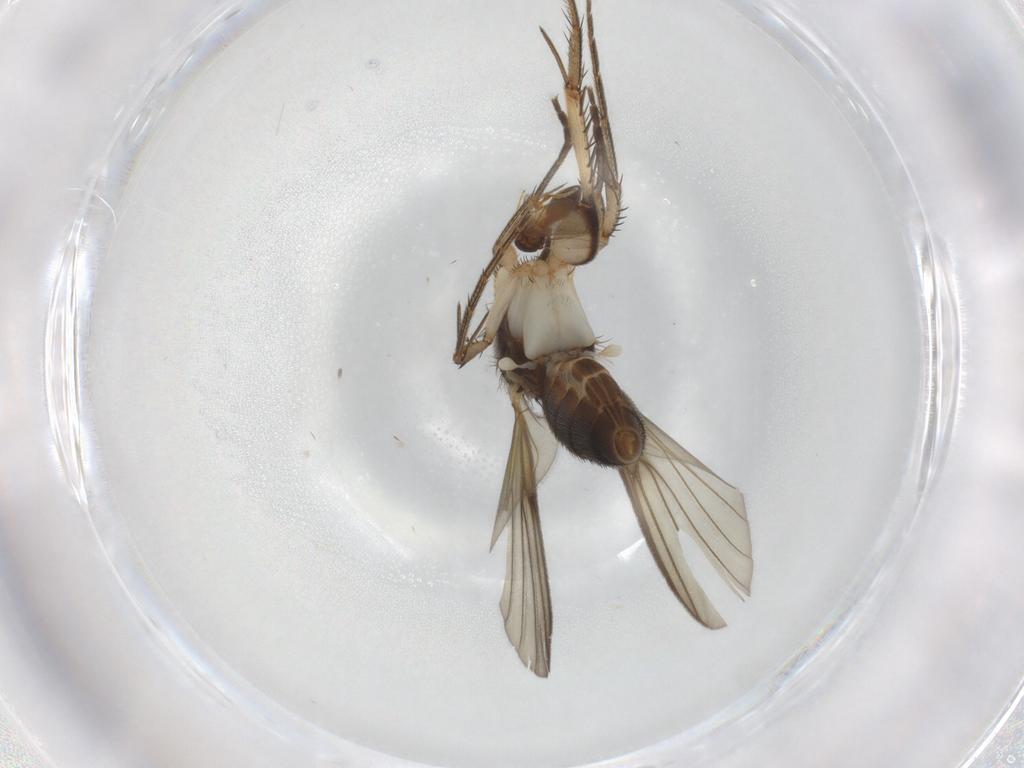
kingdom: Animalia
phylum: Arthropoda
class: Insecta
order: Diptera
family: Mycetophilidae
